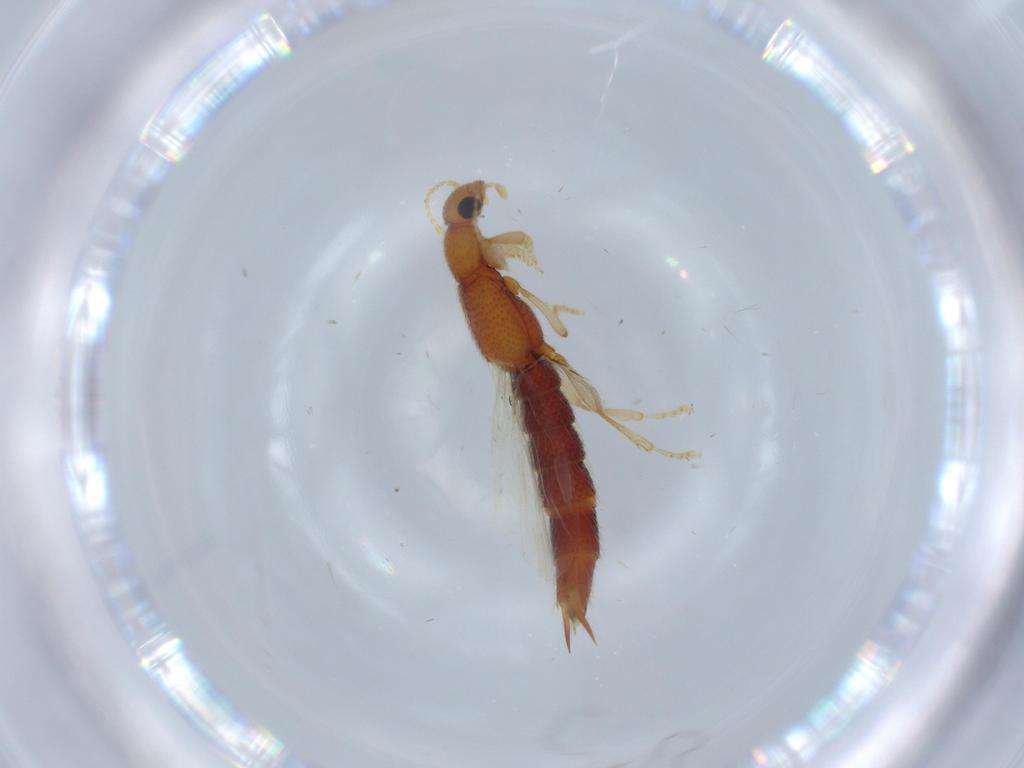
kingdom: Animalia
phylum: Arthropoda
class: Insecta
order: Coleoptera
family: Staphylinidae
